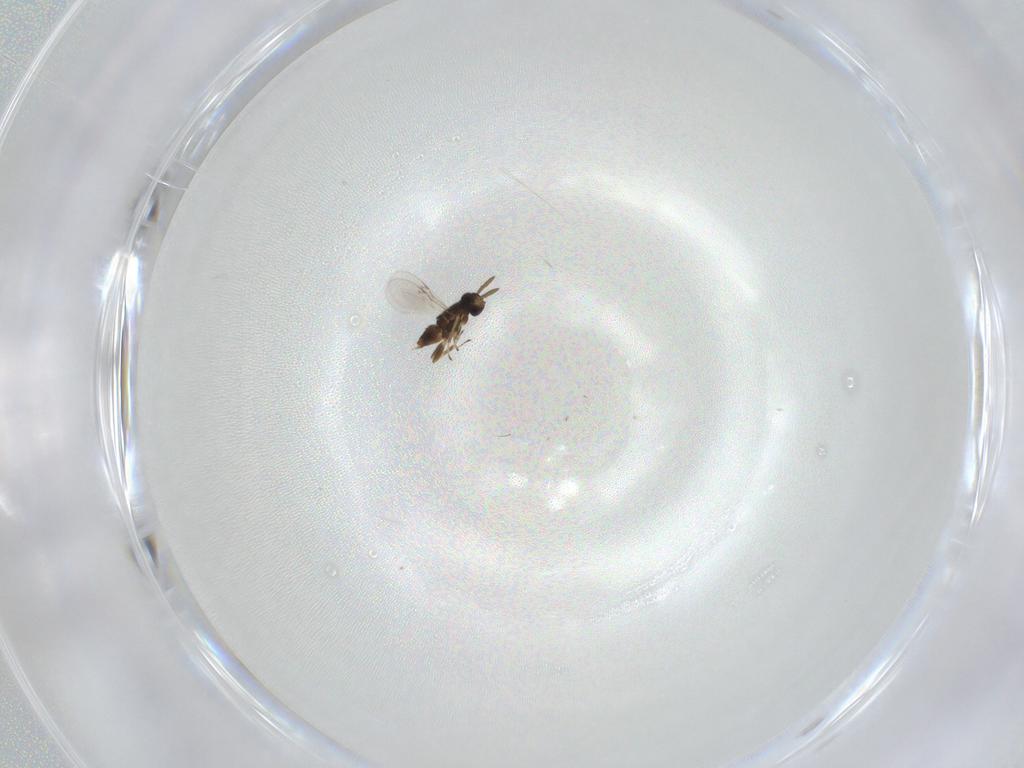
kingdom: Animalia
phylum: Arthropoda
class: Insecta
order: Hymenoptera
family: Encyrtidae
